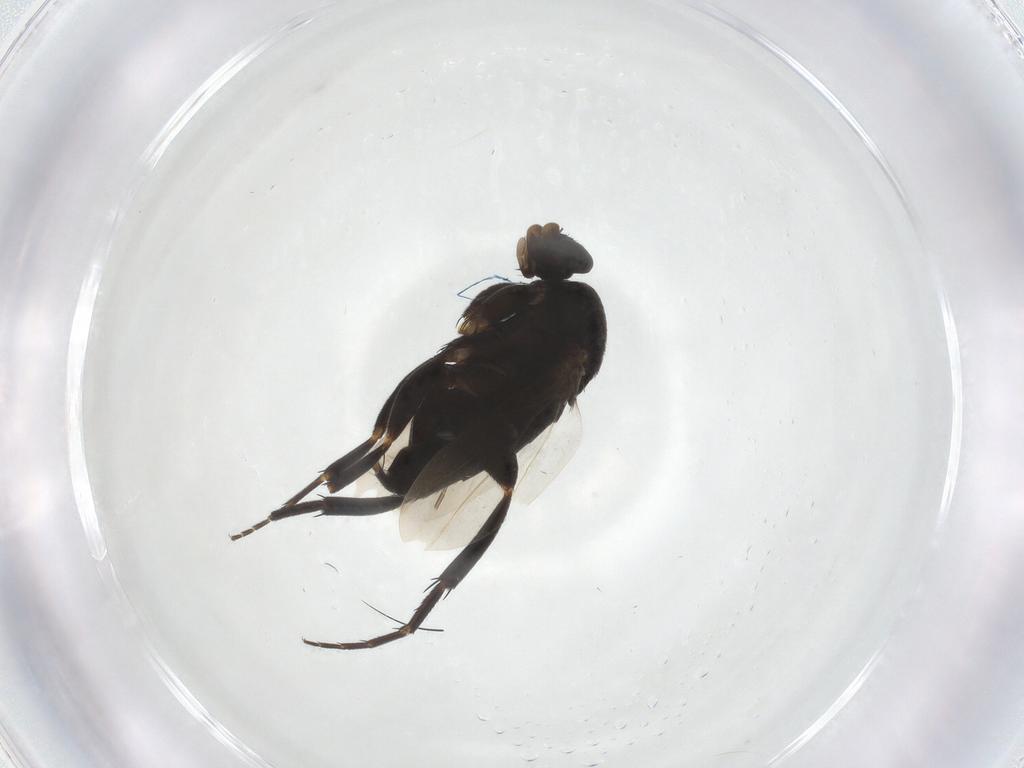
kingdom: Animalia
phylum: Arthropoda
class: Insecta
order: Diptera
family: Phoridae
